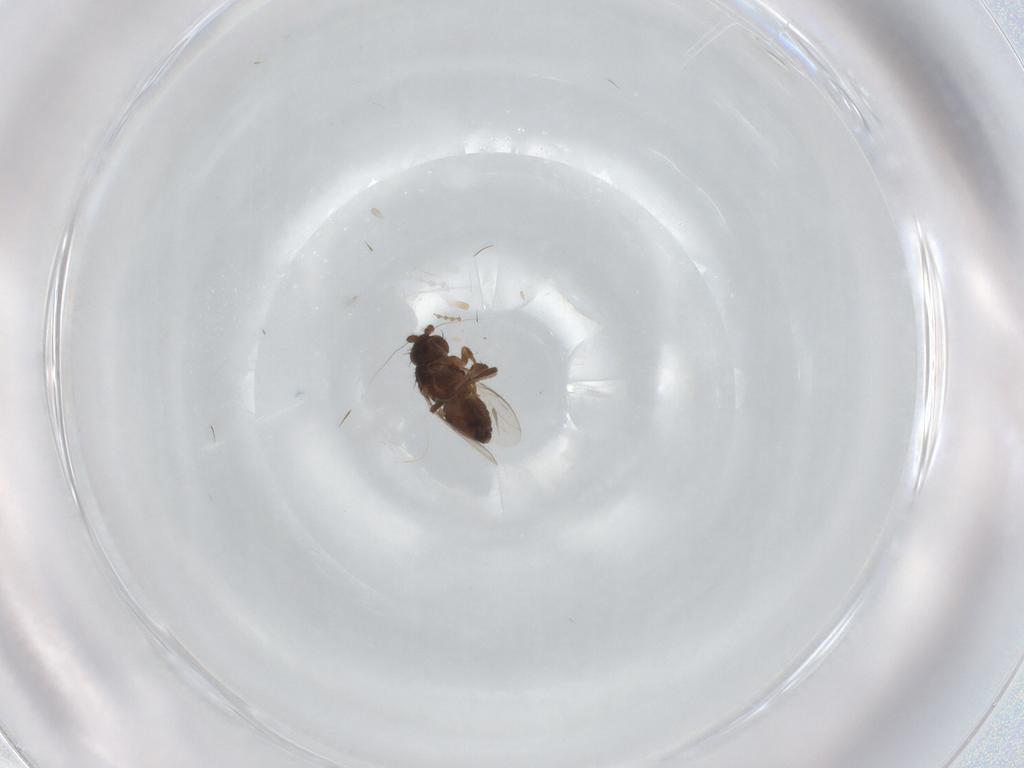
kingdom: Animalia
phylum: Arthropoda
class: Insecta
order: Diptera
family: Sphaeroceridae
